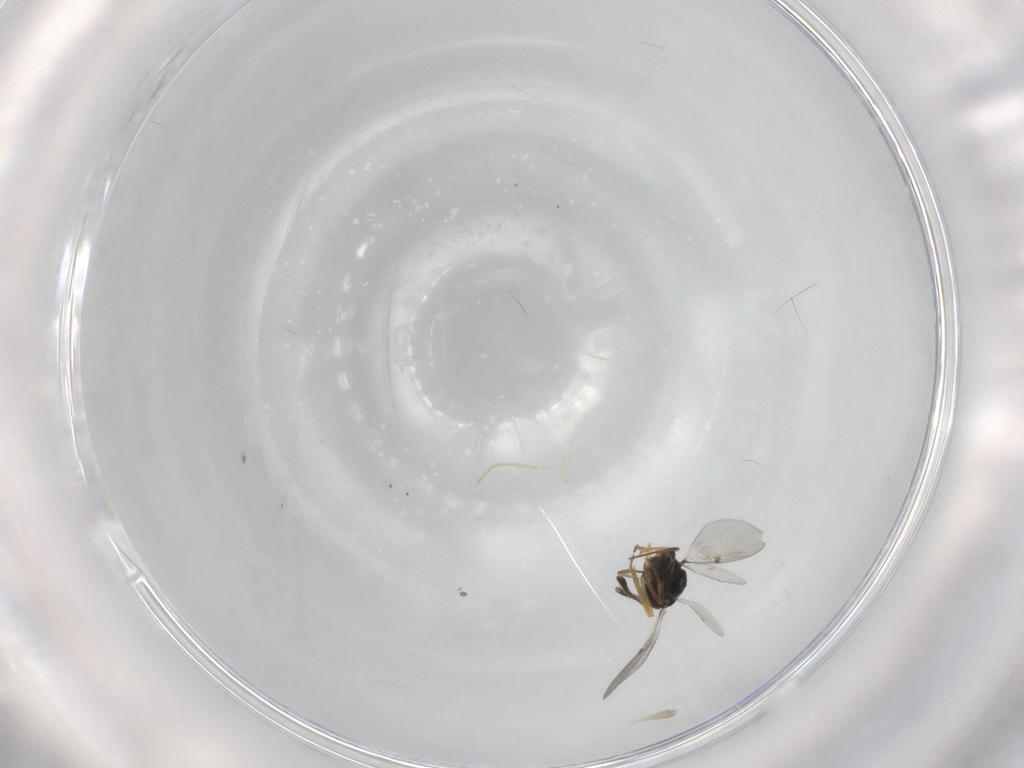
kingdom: Animalia
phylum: Arthropoda
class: Insecta
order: Hymenoptera
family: Encyrtidae
